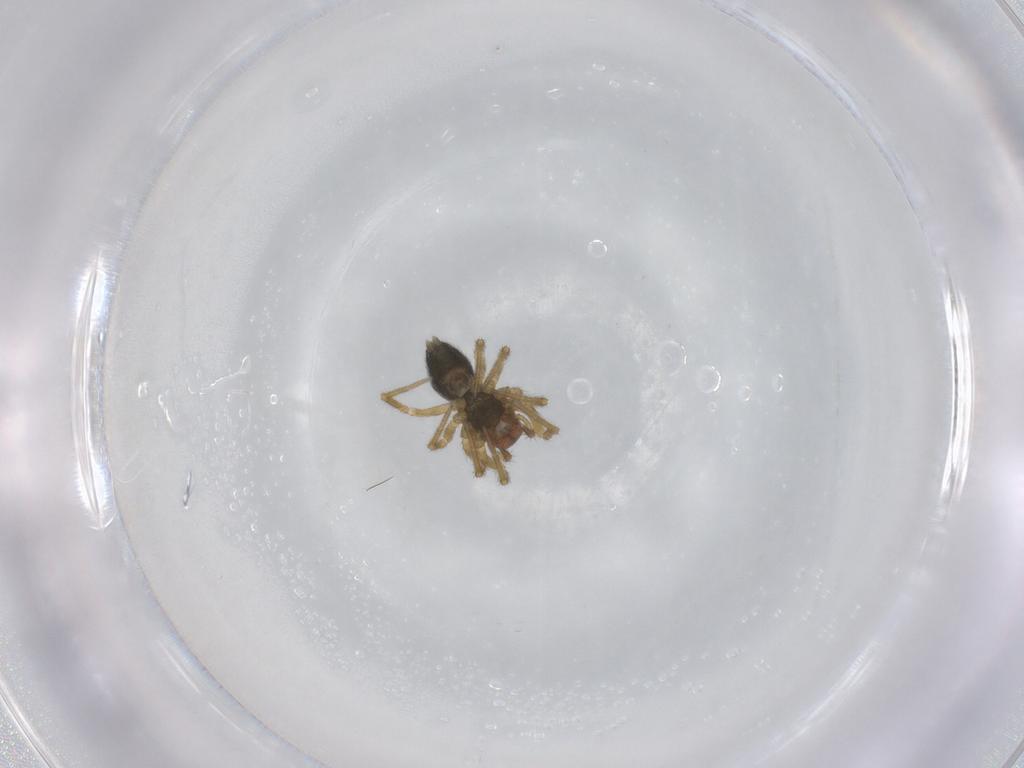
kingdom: Animalia
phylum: Arthropoda
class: Arachnida
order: Araneae
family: Linyphiidae
